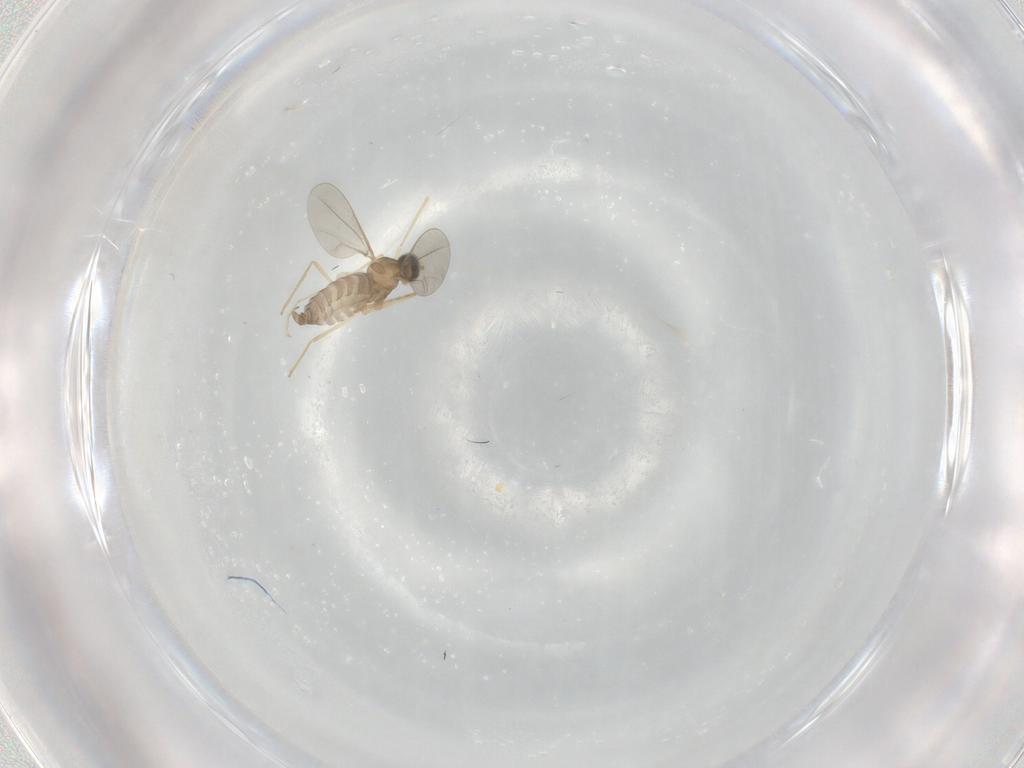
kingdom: Animalia
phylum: Arthropoda
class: Insecta
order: Diptera
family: Cecidomyiidae
